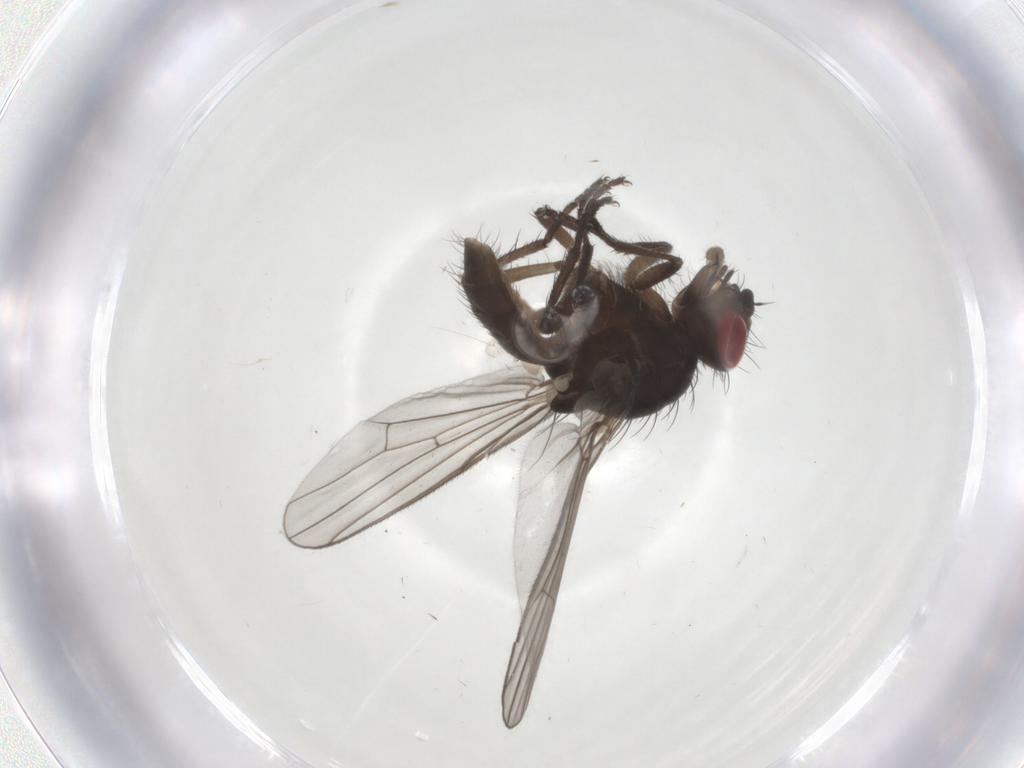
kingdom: Animalia
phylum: Arthropoda
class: Insecta
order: Diptera
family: Anthomyiidae
